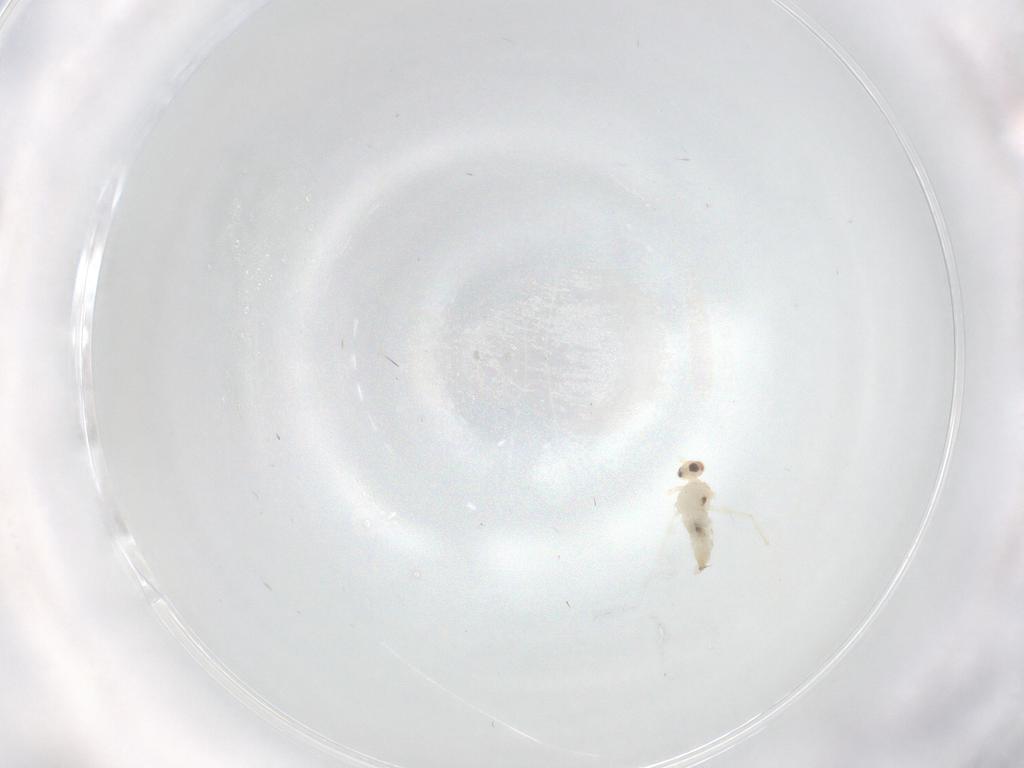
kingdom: Animalia
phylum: Arthropoda
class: Insecta
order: Diptera
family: Cecidomyiidae
